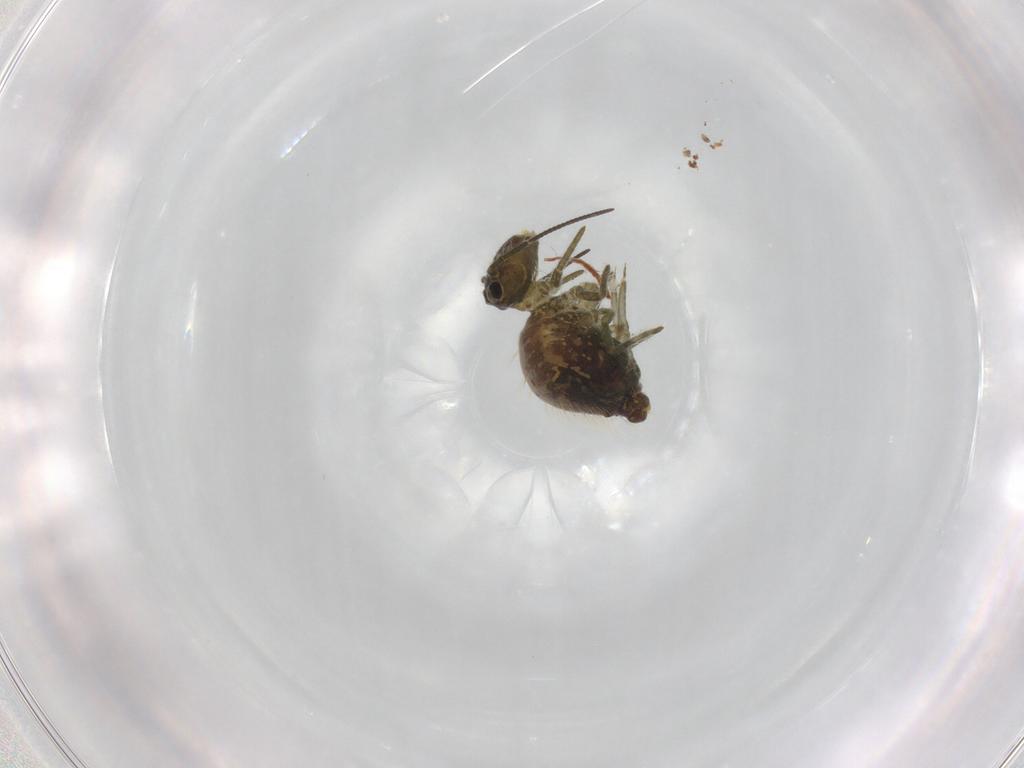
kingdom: Animalia
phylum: Arthropoda
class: Collembola
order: Symphypleona
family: Sminthuridae
